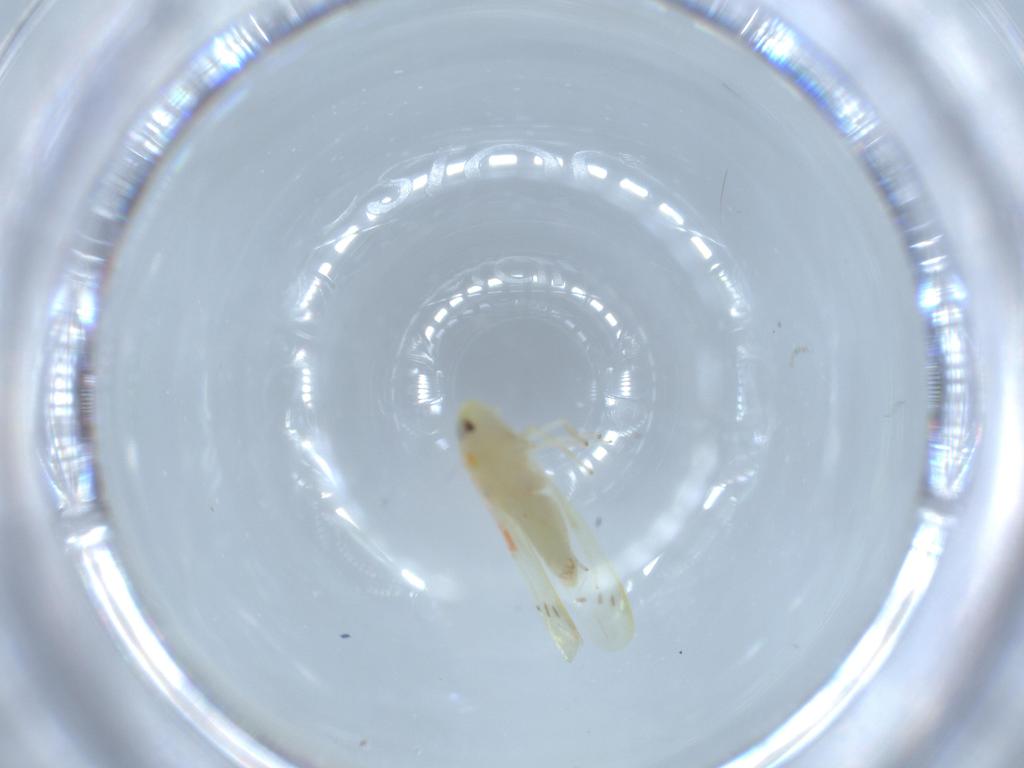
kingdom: Animalia
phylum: Arthropoda
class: Insecta
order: Hemiptera
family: Cicadellidae
